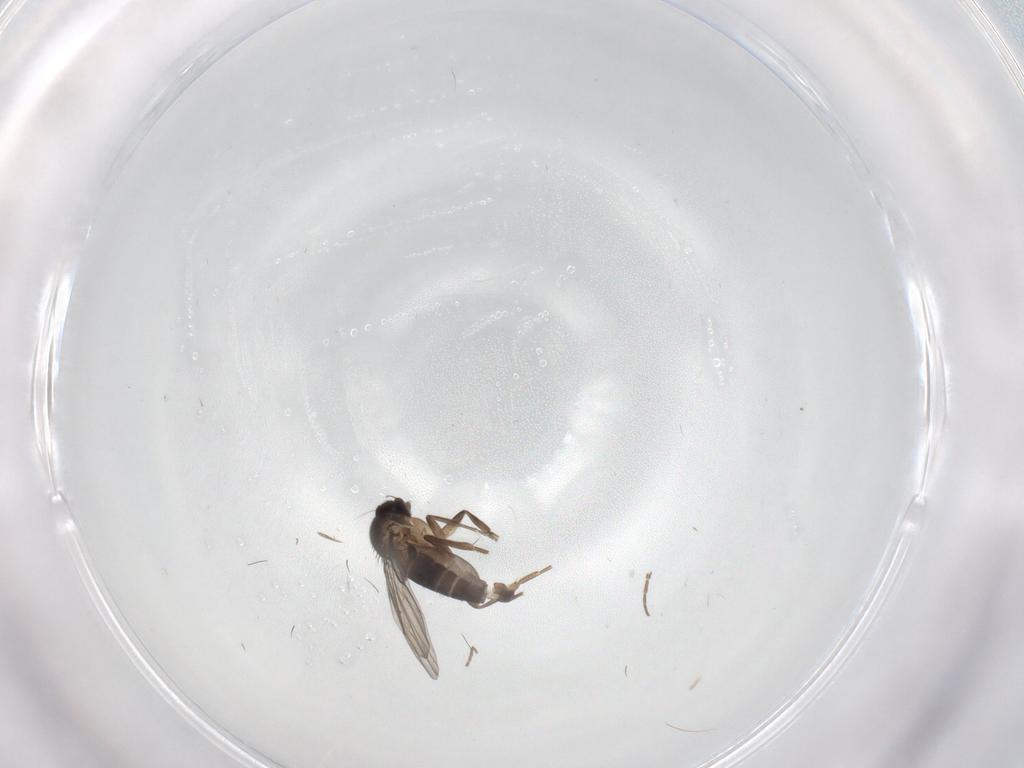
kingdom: Animalia
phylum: Arthropoda
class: Insecta
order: Diptera
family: Phoridae
